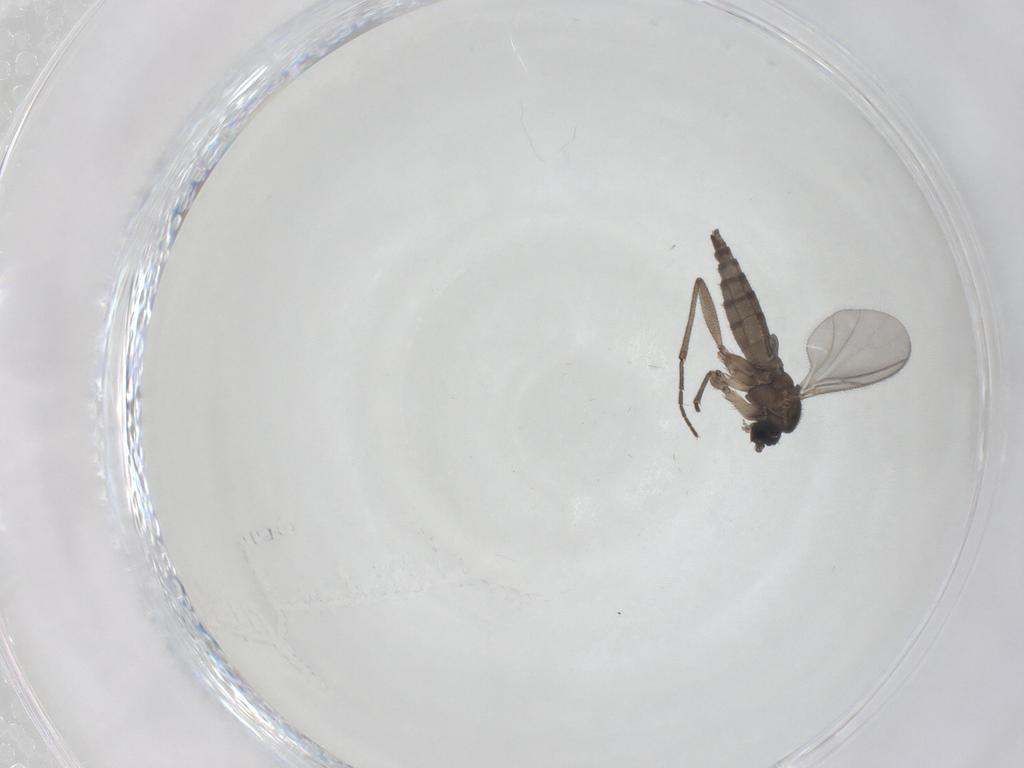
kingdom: Animalia
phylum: Arthropoda
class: Insecta
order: Diptera
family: Sciaridae
